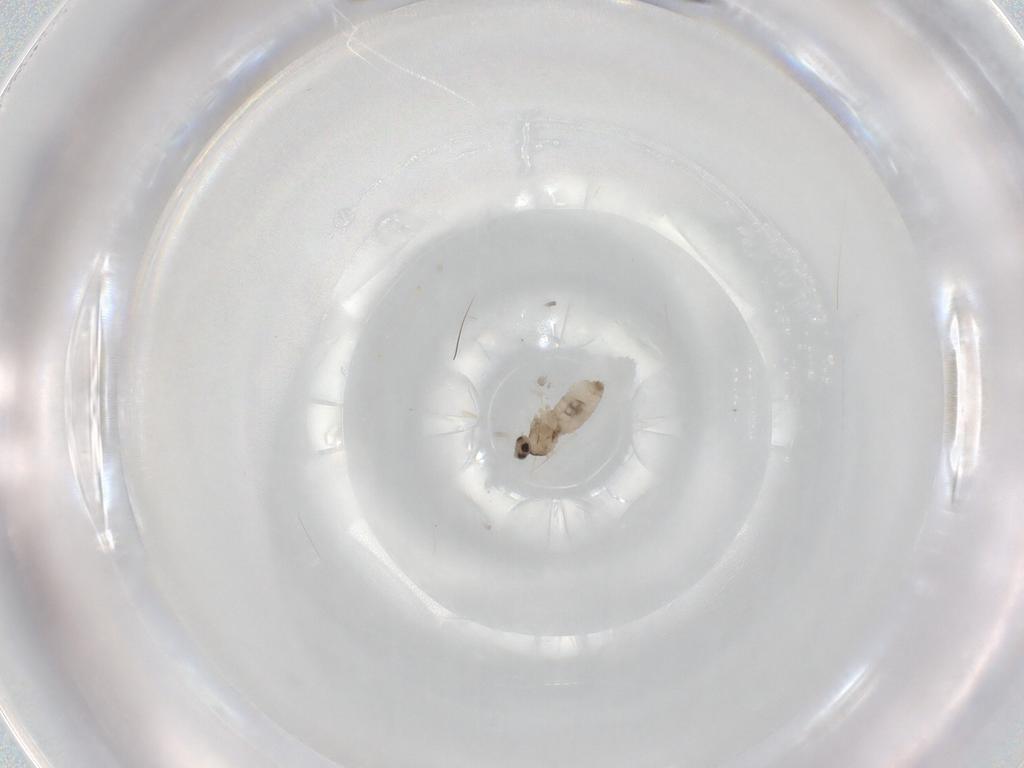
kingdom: Animalia
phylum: Arthropoda
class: Insecta
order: Diptera
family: Cecidomyiidae
